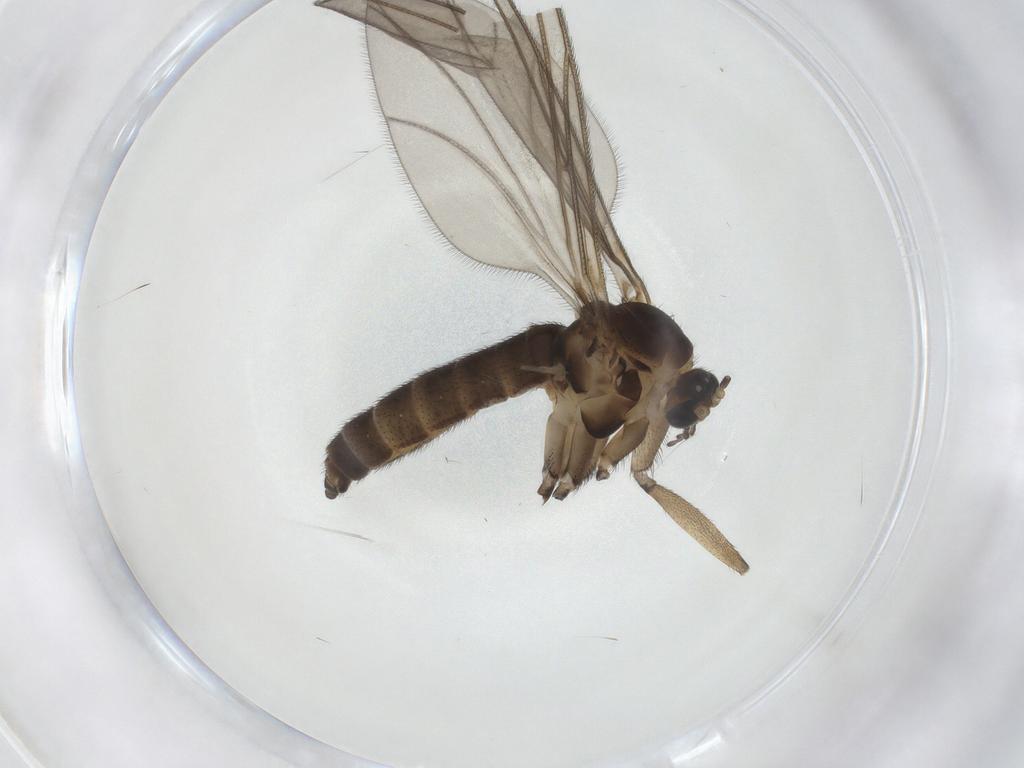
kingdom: Animalia
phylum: Arthropoda
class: Insecta
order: Diptera
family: Sciaridae
